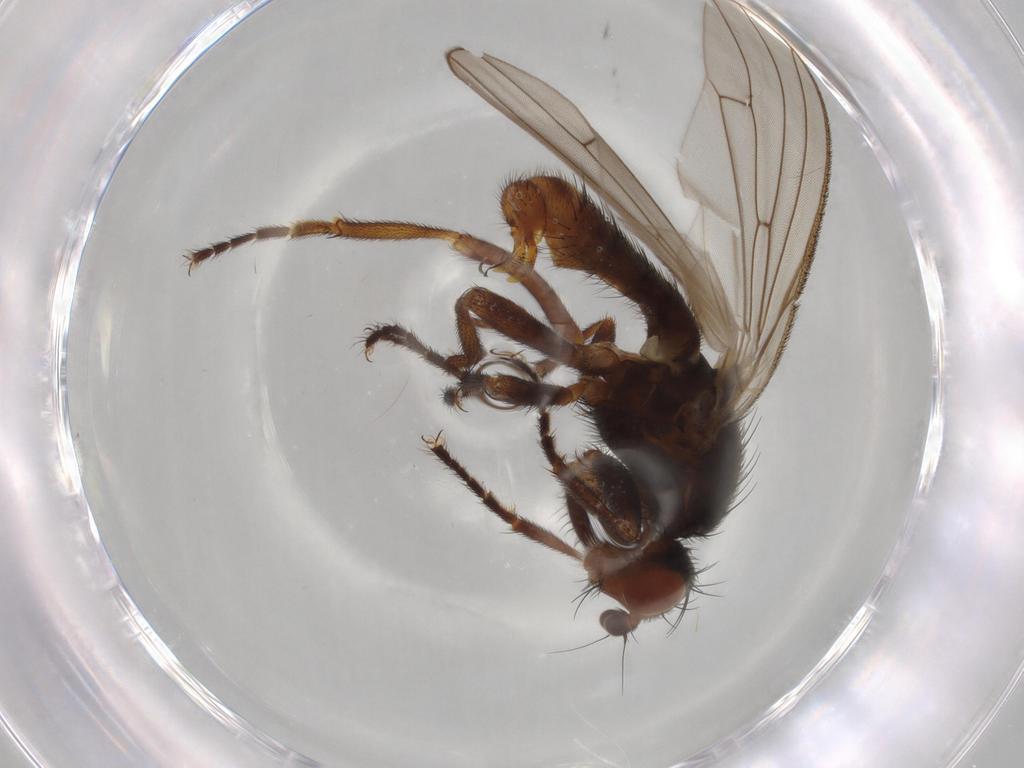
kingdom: Animalia
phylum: Arthropoda
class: Insecta
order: Diptera
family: Heleomyzidae
